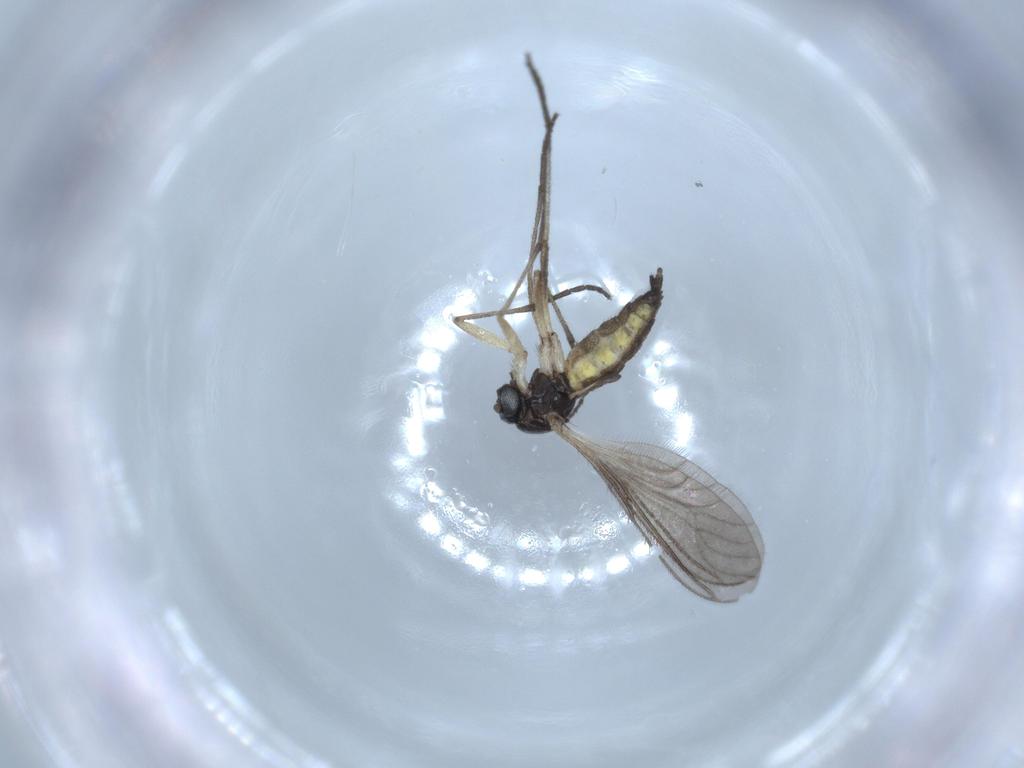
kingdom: Animalia
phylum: Arthropoda
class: Insecta
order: Diptera
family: Sciaridae
